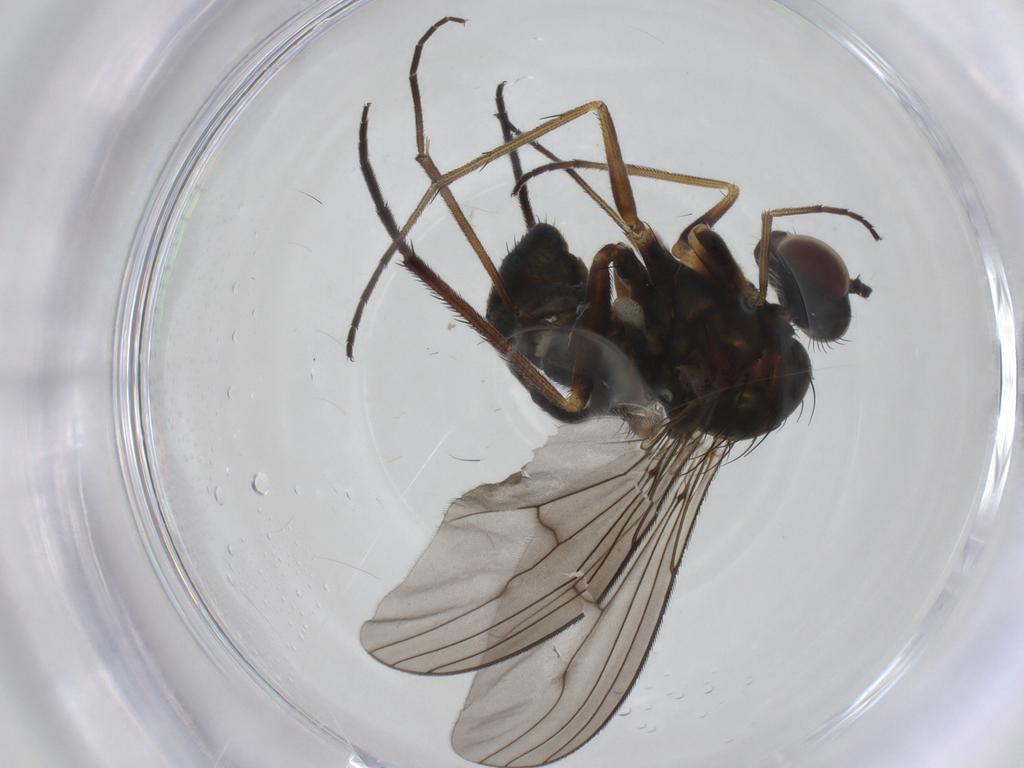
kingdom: Animalia
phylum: Arthropoda
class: Insecta
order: Diptera
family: Dolichopodidae
